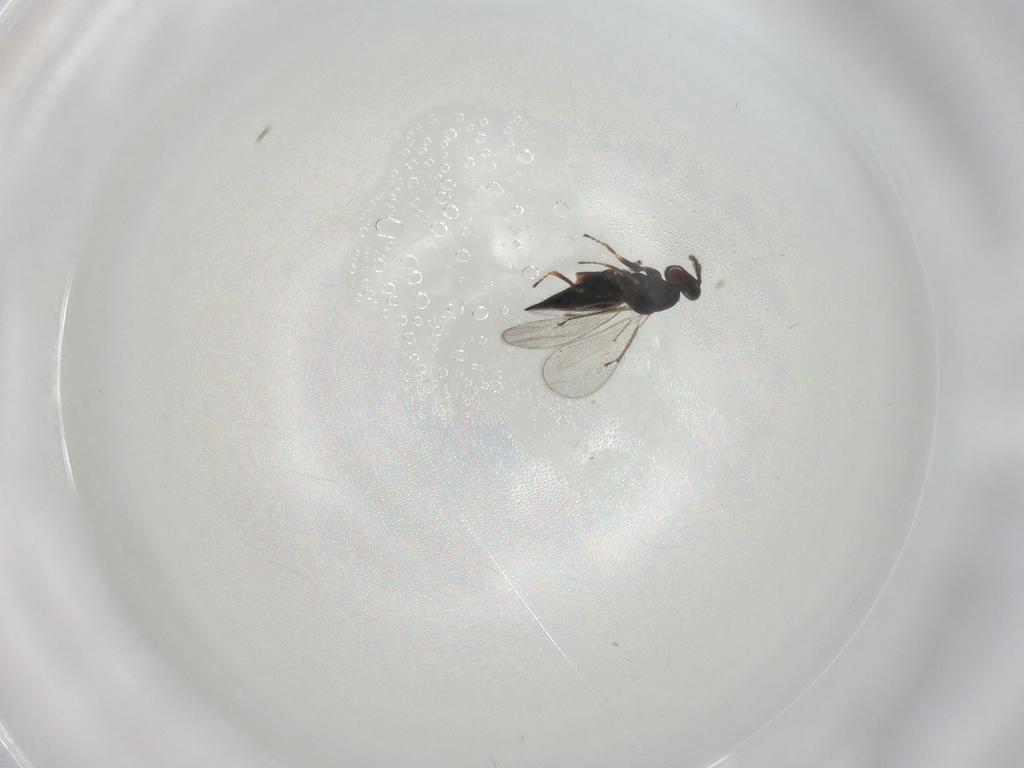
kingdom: Animalia
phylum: Arthropoda
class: Insecta
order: Hymenoptera
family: Eulophidae
